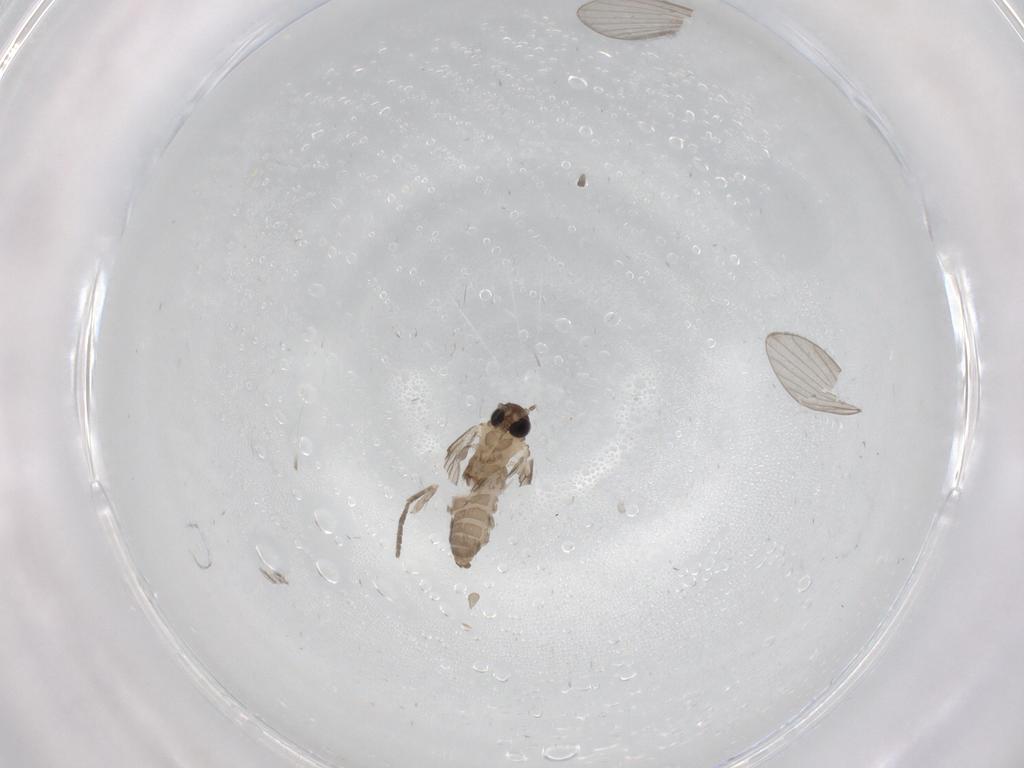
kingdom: Animalia
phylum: Arthropoda
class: Insecta
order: Diptera
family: Psychodidae
